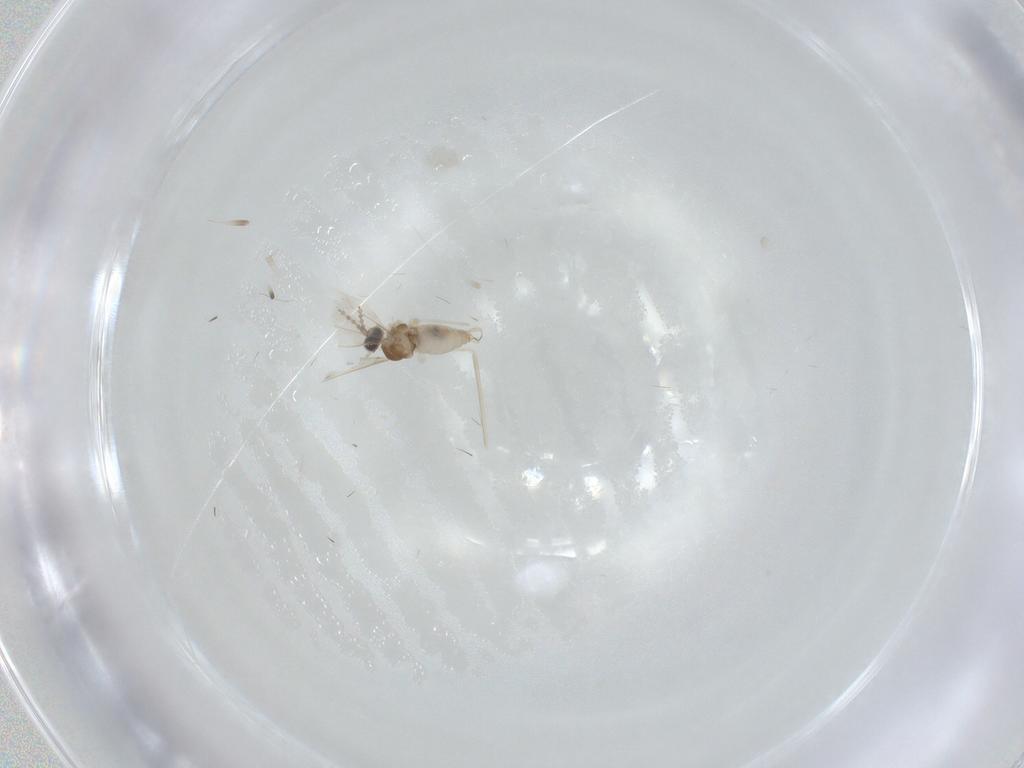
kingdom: Animalia
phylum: Arthropoda
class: Insecta
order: Diptera
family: Cecidomyiidae
